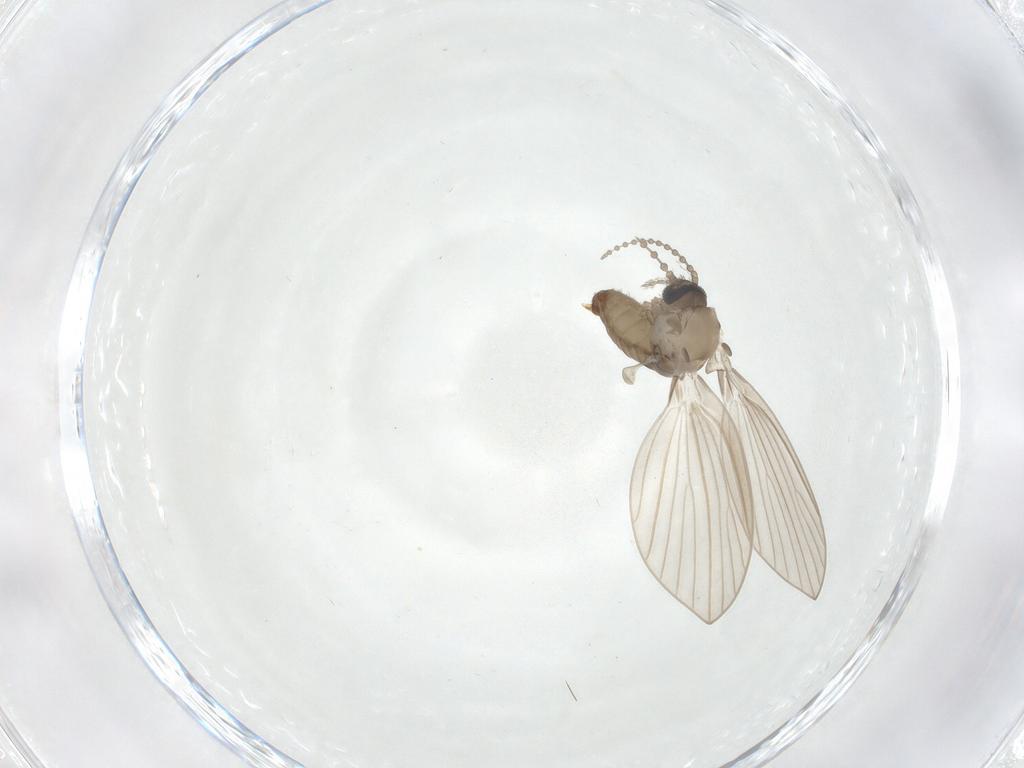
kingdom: Animalia
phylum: Arthropoda
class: Insecta
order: Diptera
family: Psychodidae
